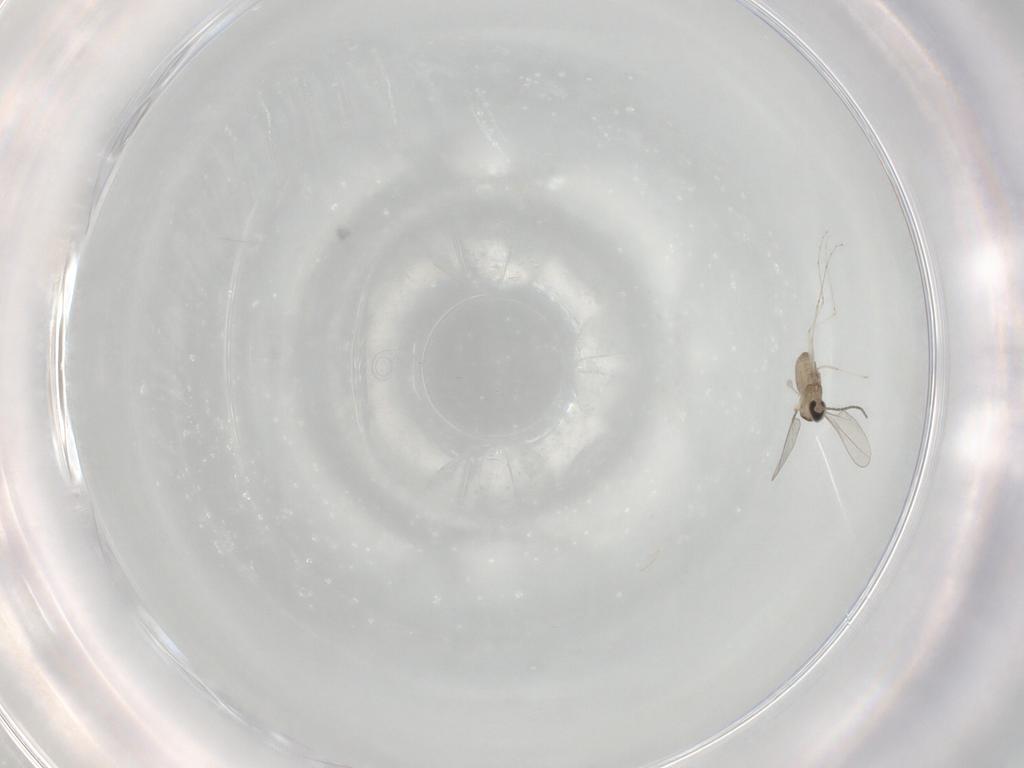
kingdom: Animalia
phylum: Arthropoda
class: Insecta
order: Diptera
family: Cecidomyiidae
